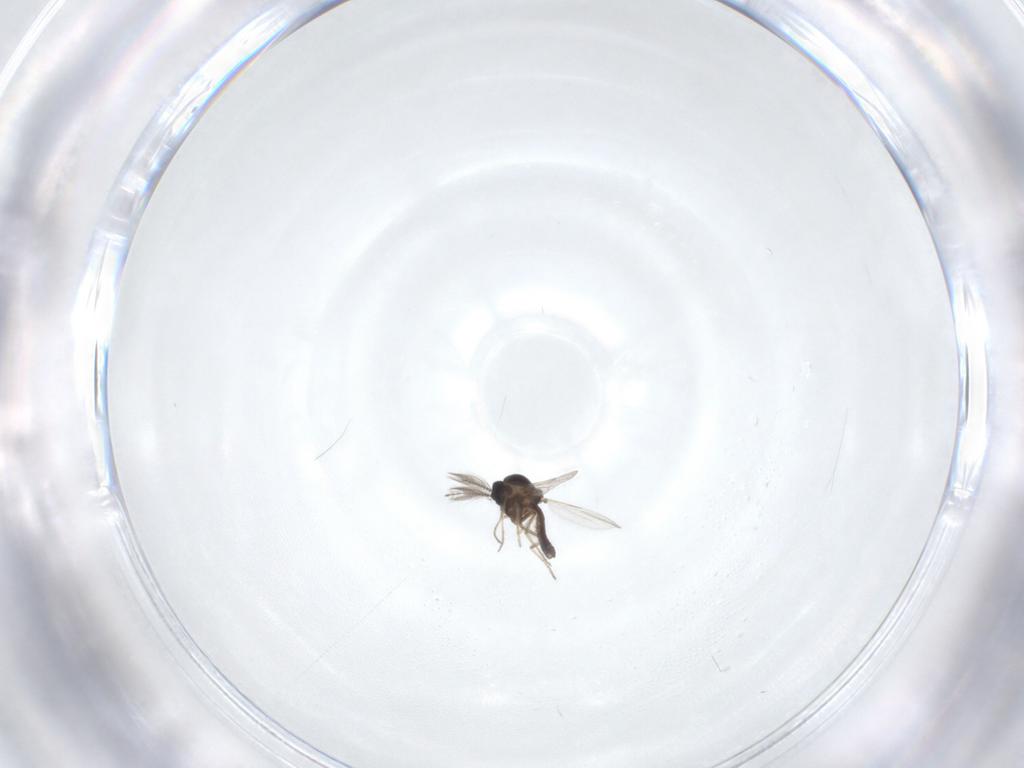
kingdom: Animalia
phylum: Arthropoda
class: Insecta
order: Diptera
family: Ceratopogonidae
